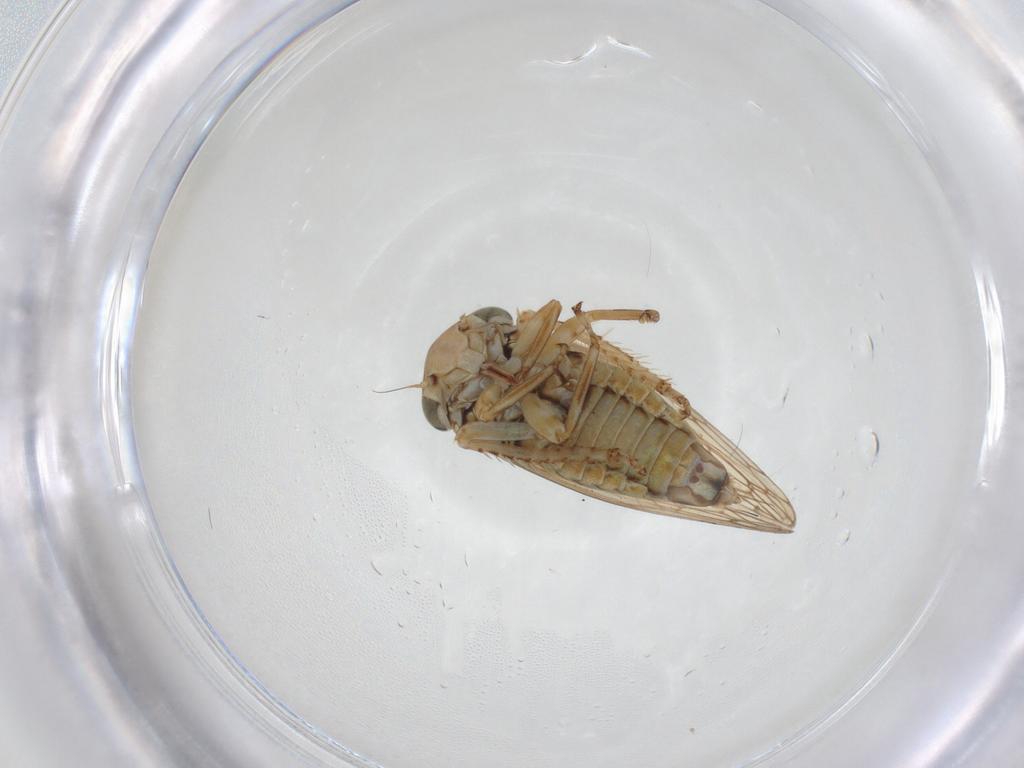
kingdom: Animalia
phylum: Arthropoda
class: Insecta
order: Hemiptera
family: Cicadellidae
